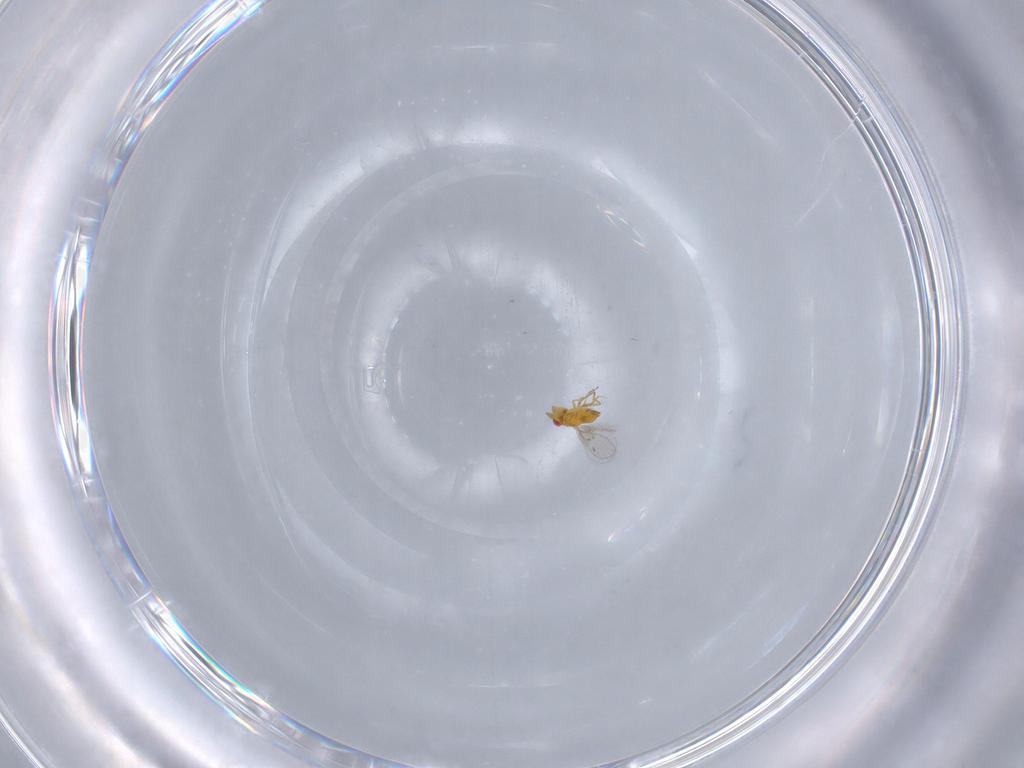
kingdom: Animalia
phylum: Arthropoda
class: Insecta
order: Hymenoptera
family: Trichogrammatidae
